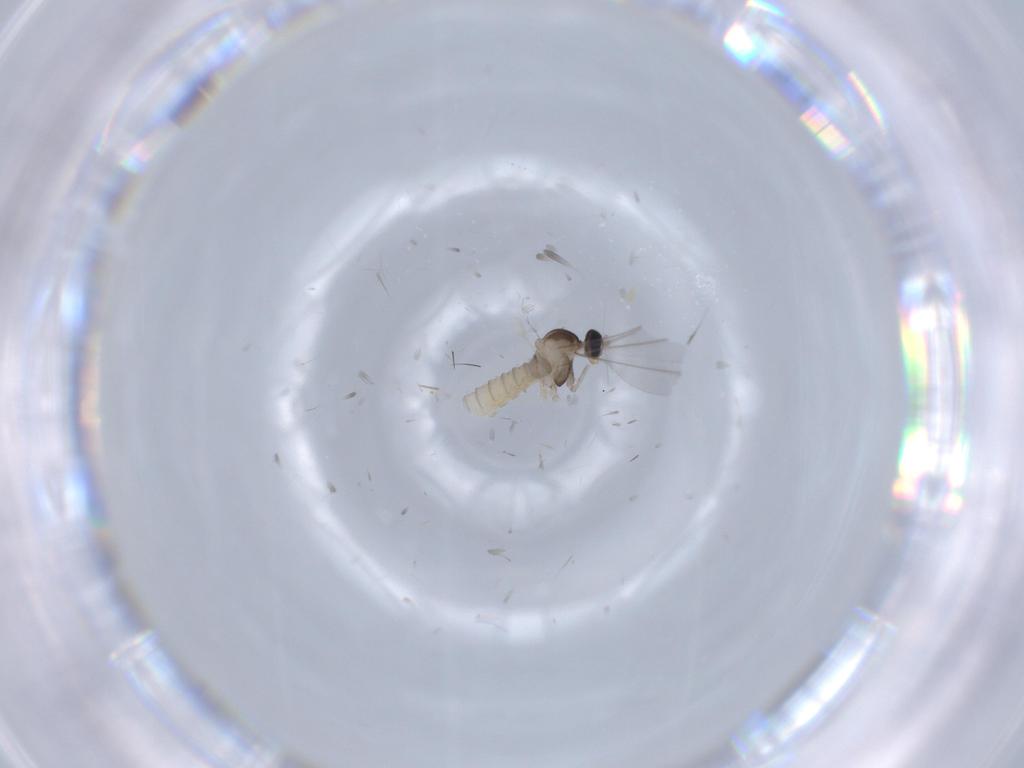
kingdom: Animalia
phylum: Arthropoda
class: Insecta
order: Diptera
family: Cecidomyiidae
